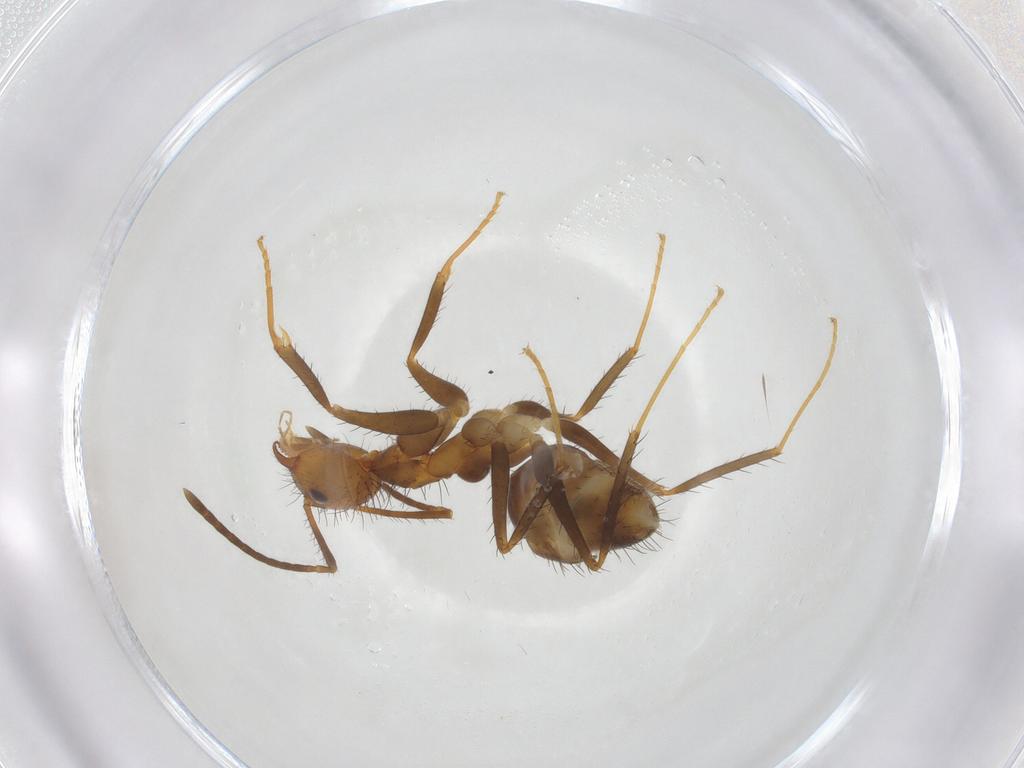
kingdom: Animalia
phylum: Arthropoda
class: Insecta
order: Hymenoptera
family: Formicidae
